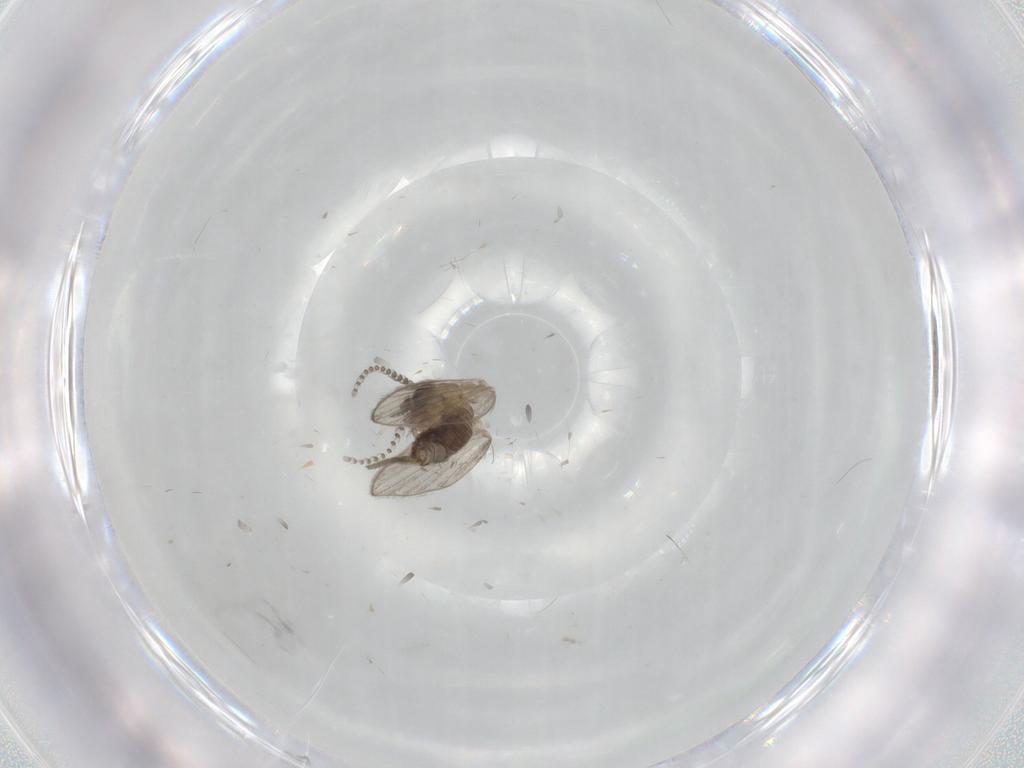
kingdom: Animalia
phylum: Arthropoda
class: Insecta
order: Diptera
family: Psychodidae
